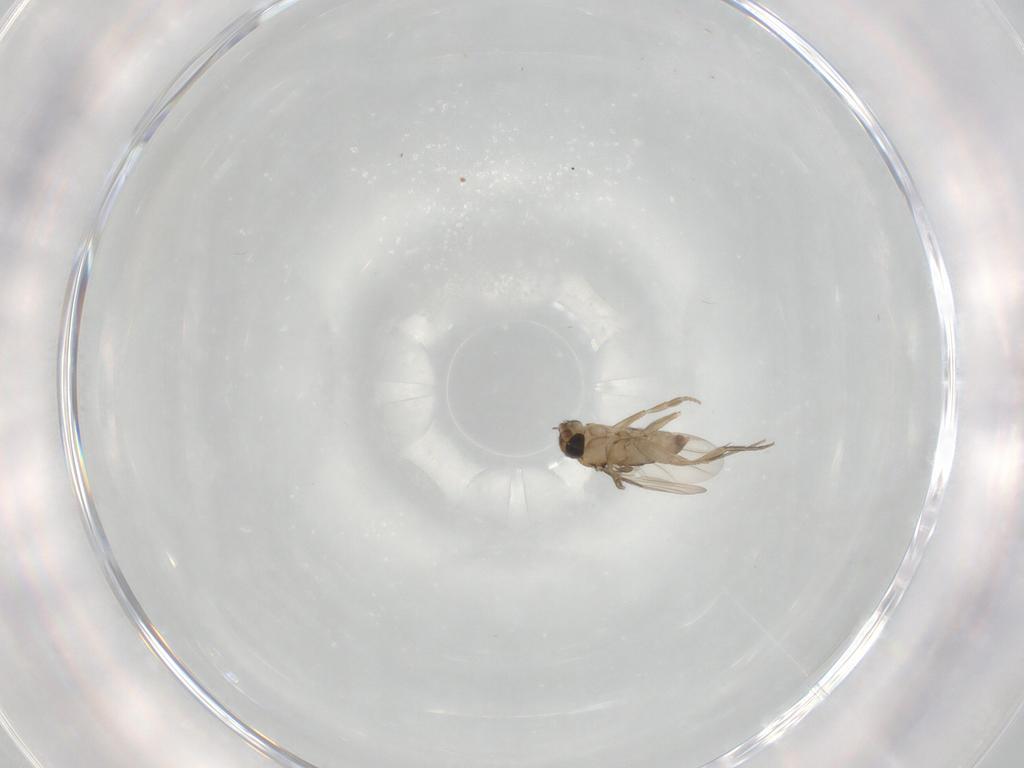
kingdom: Animalia
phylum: Arthropoda
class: Insecta
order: Diptera
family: Phoridae
